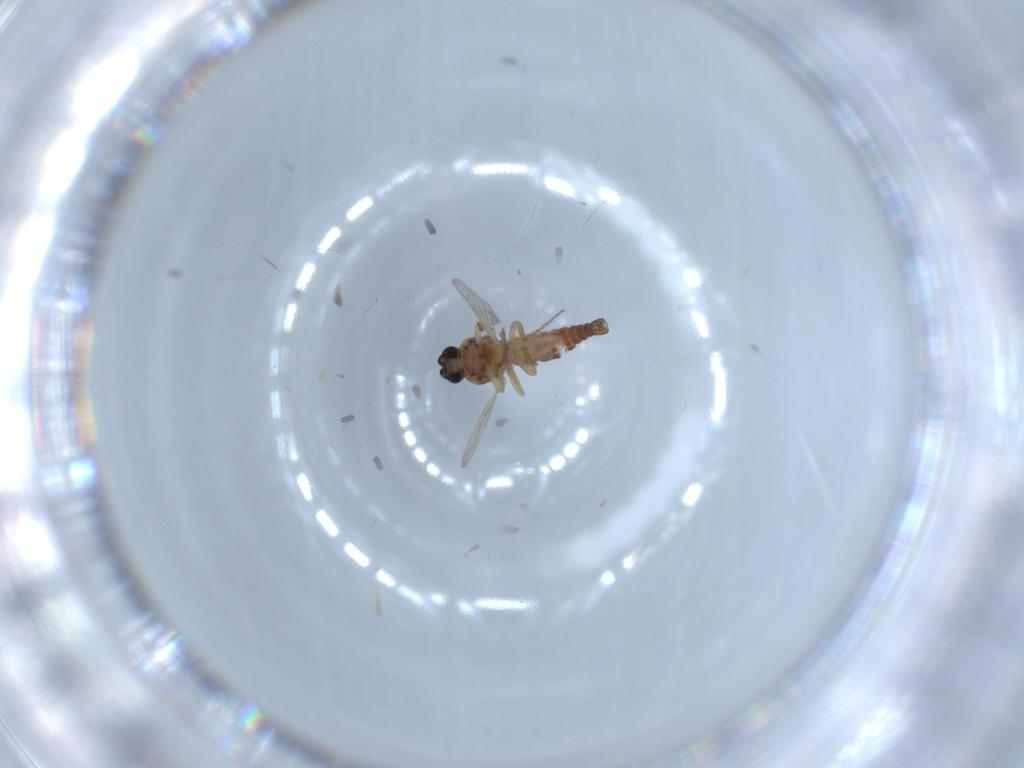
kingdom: Animalia
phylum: Arthropoda
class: Insecta
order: Diptera
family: Ceratopogonidae
